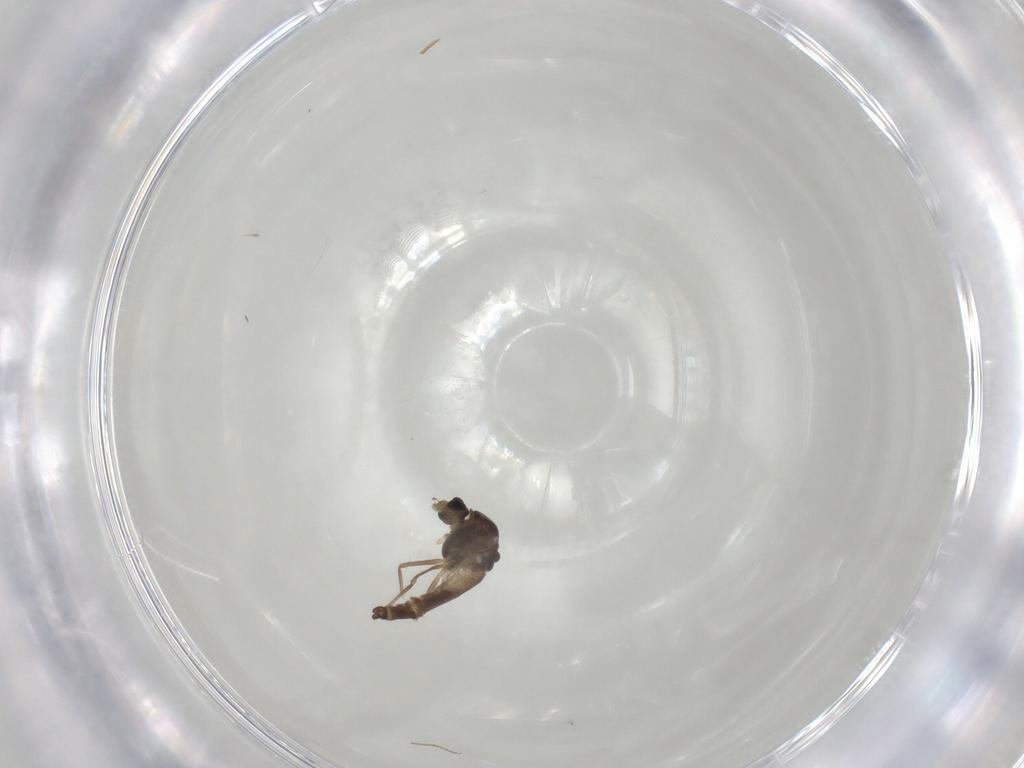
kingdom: Animalia
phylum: Arthropoda
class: Insecta
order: Diptera
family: Chironomidae
